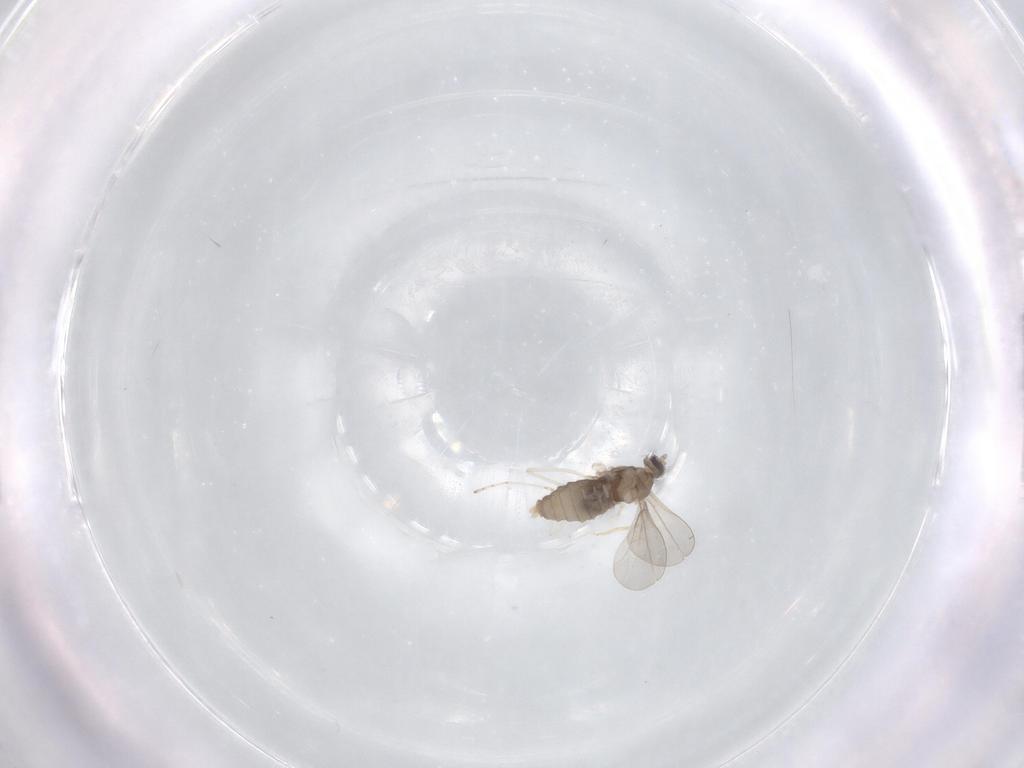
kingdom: Animalia
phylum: Arthropoda
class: Insecta
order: Diptera
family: Cecidomyiidae
